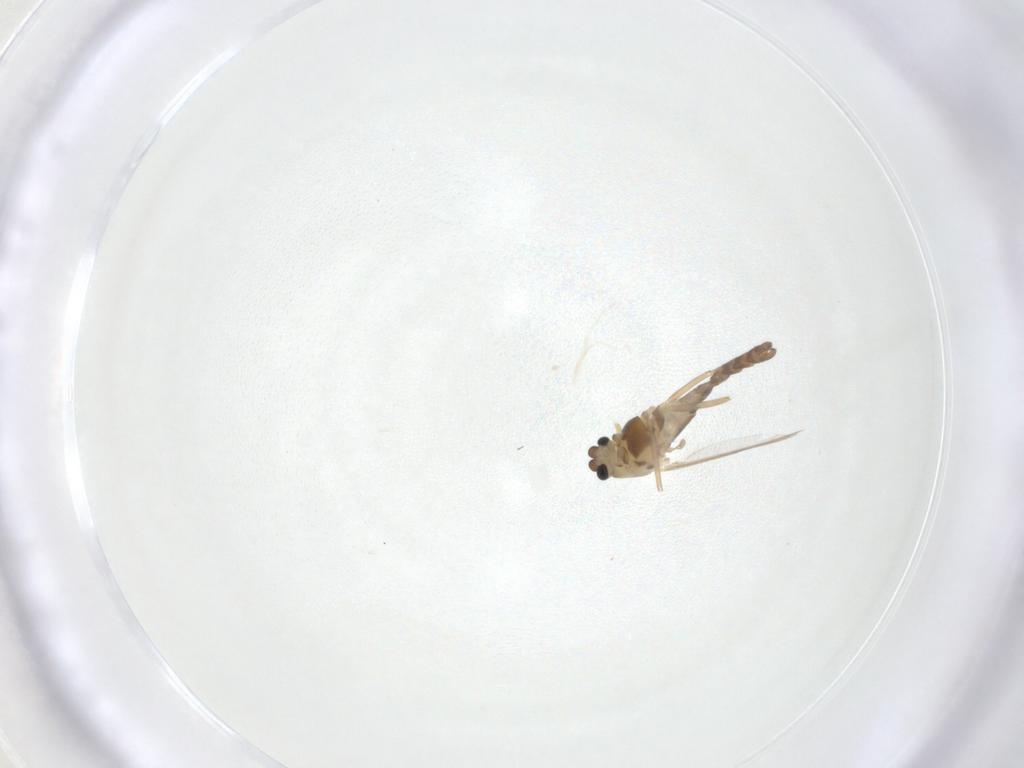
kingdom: Animalia
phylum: Arthropoda
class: Insecta
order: Diptera
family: Chironomidae
